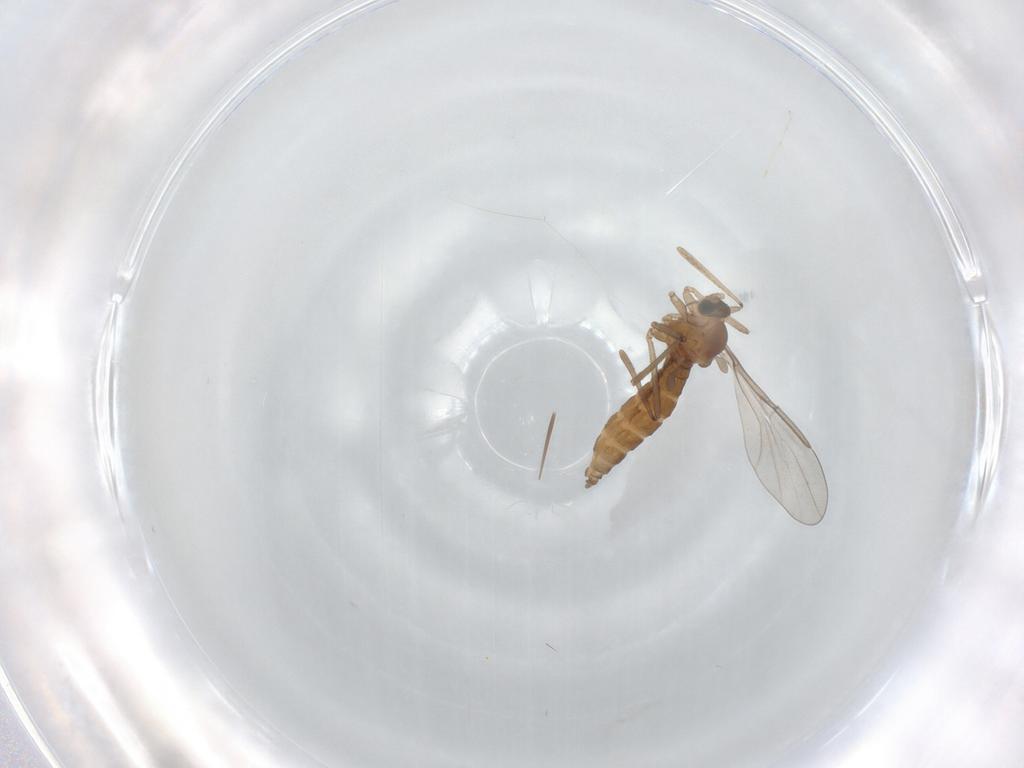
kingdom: Animalia
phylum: Arthropoda
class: Insecta
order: Diptera
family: Cecidomyiidae
